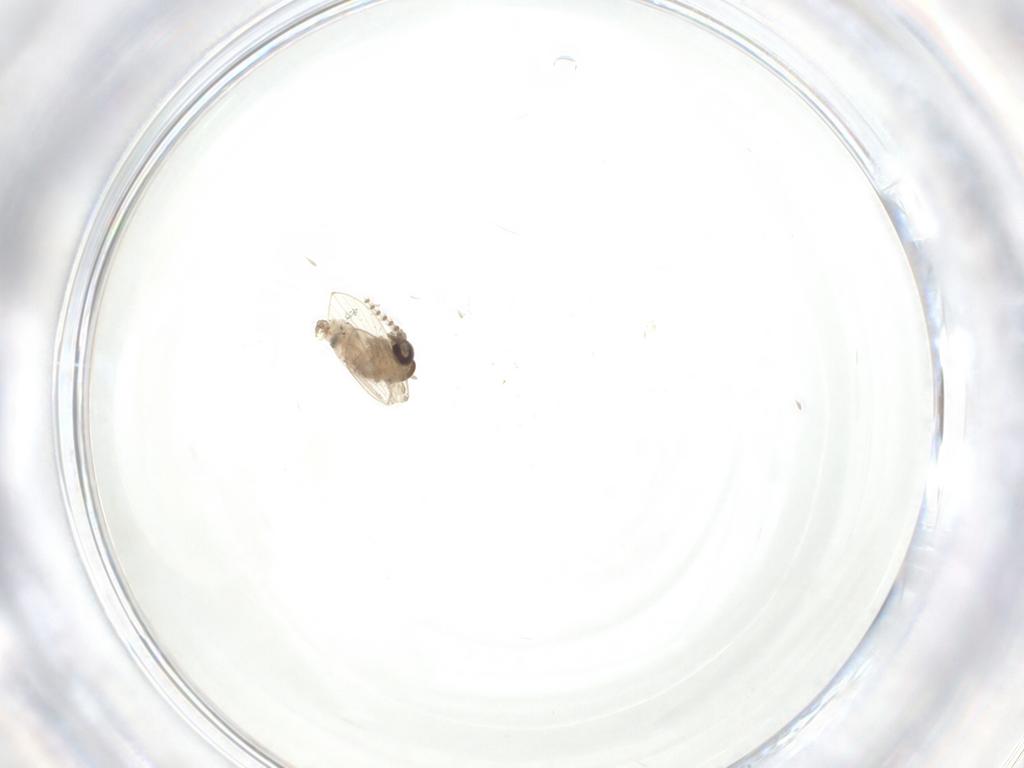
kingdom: Animalia
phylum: Arthropoda
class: Insecta
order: Diptera
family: Psychodidae
